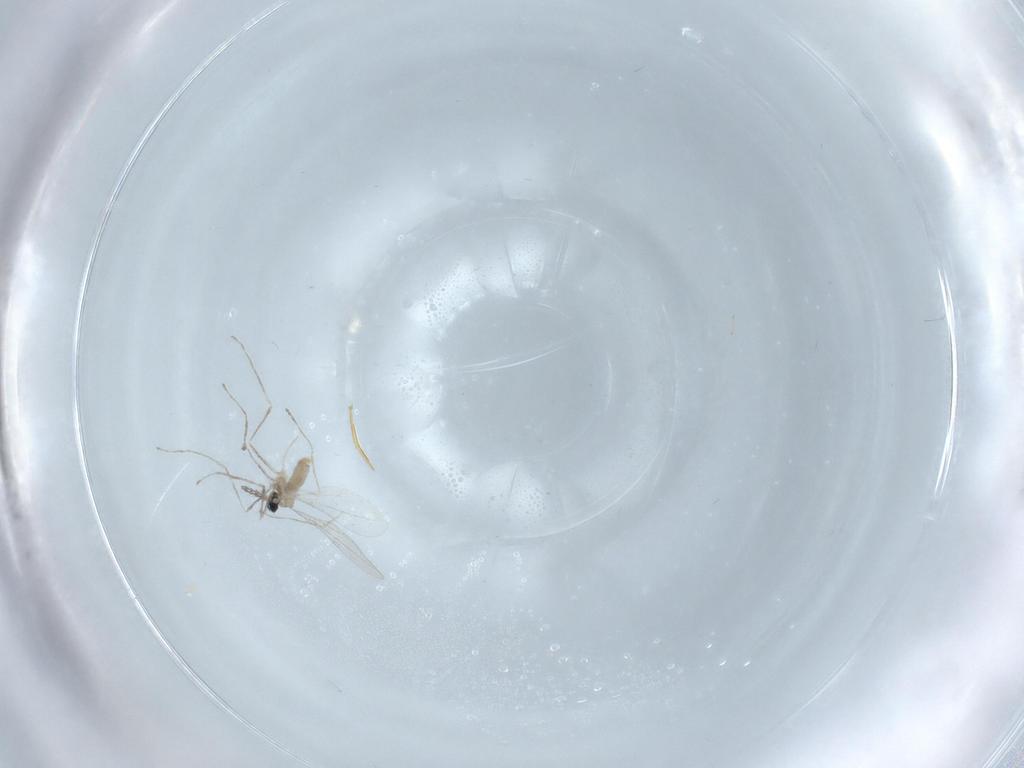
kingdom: Animalia
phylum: Arthropoda
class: Insecta
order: Diptera
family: Cecidomyiidae
